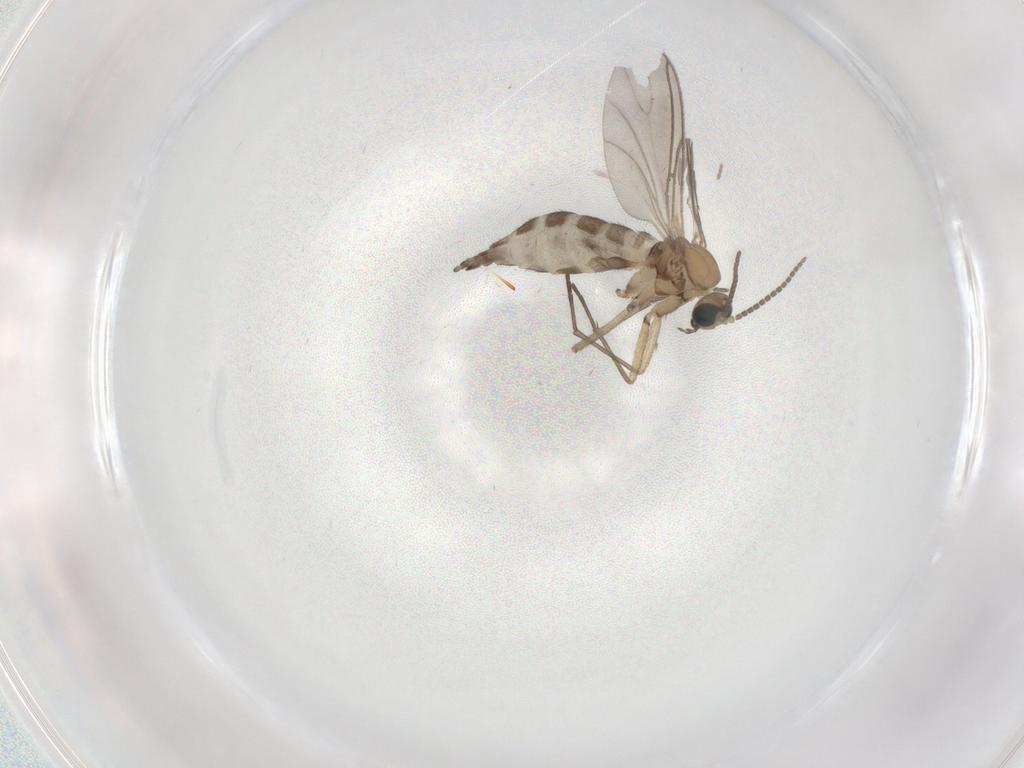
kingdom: Animalia
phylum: Arthropoda
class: Insecta
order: Diptera
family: Sciaridae
